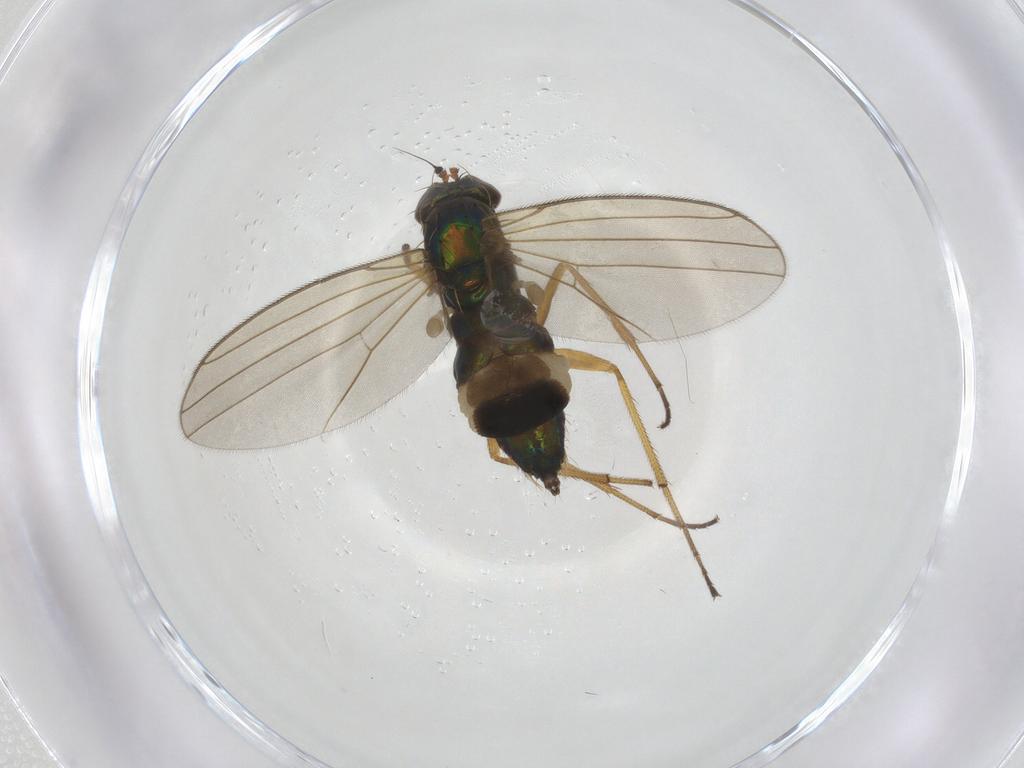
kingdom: Animalia
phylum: Arthropoda
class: Insecta
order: Diptera
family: Dolichopodidae
